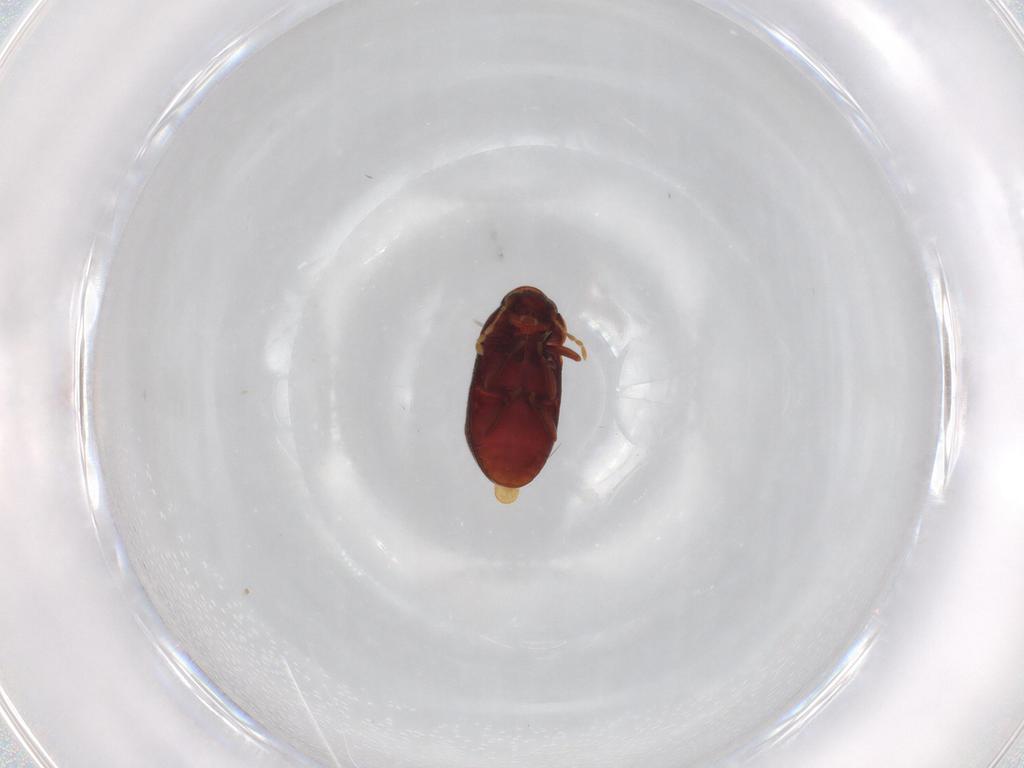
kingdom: Animalia
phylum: Arthropoda
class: Insecta
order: Coleoptera
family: Ptinidae
